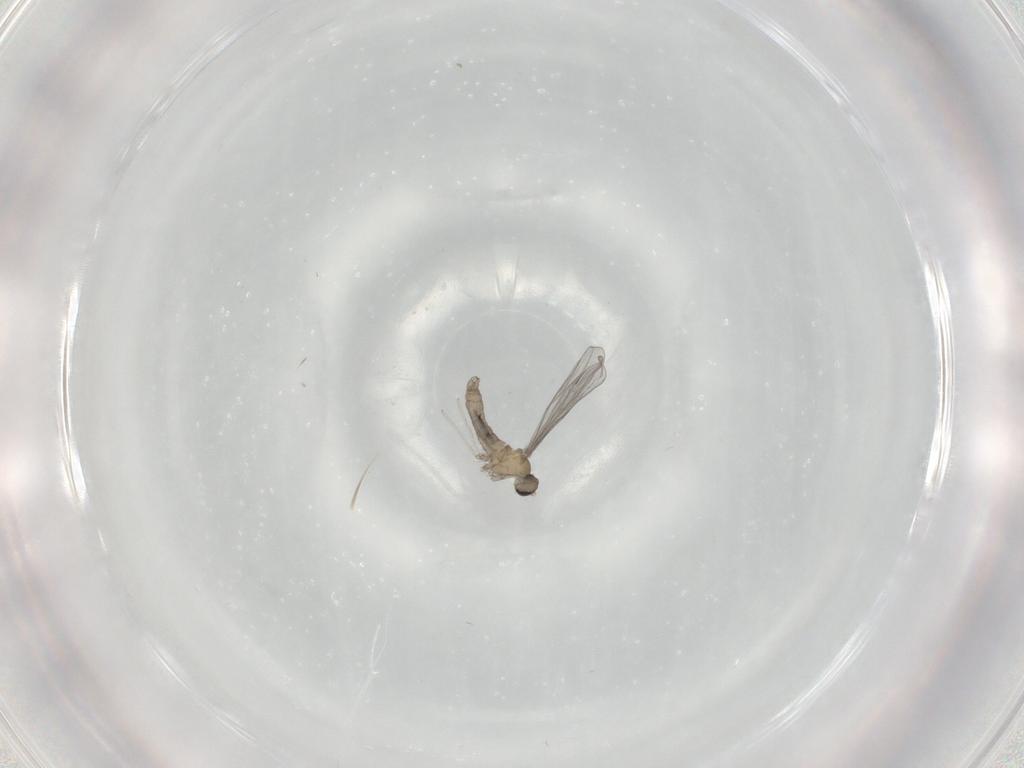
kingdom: Animalia
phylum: Arthropoda
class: Insecta
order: Diptera
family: Cecidomyiidae
